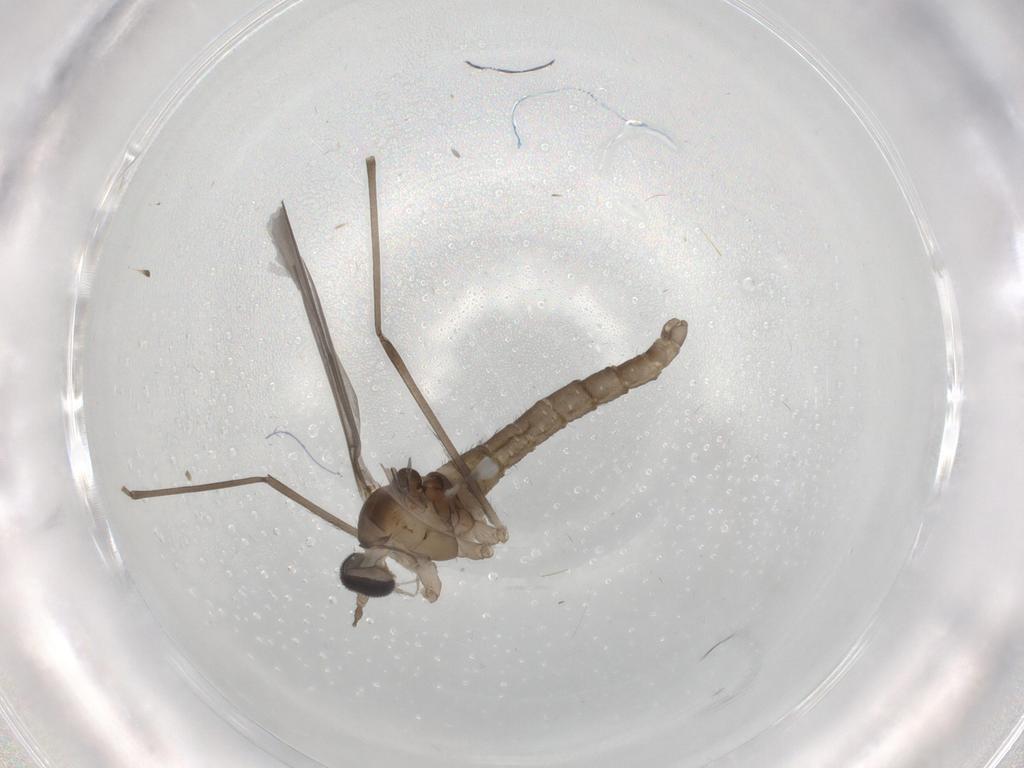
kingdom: Animalia
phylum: Arthropoda
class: Insecta
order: Diptera
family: Cecidomyiidae
